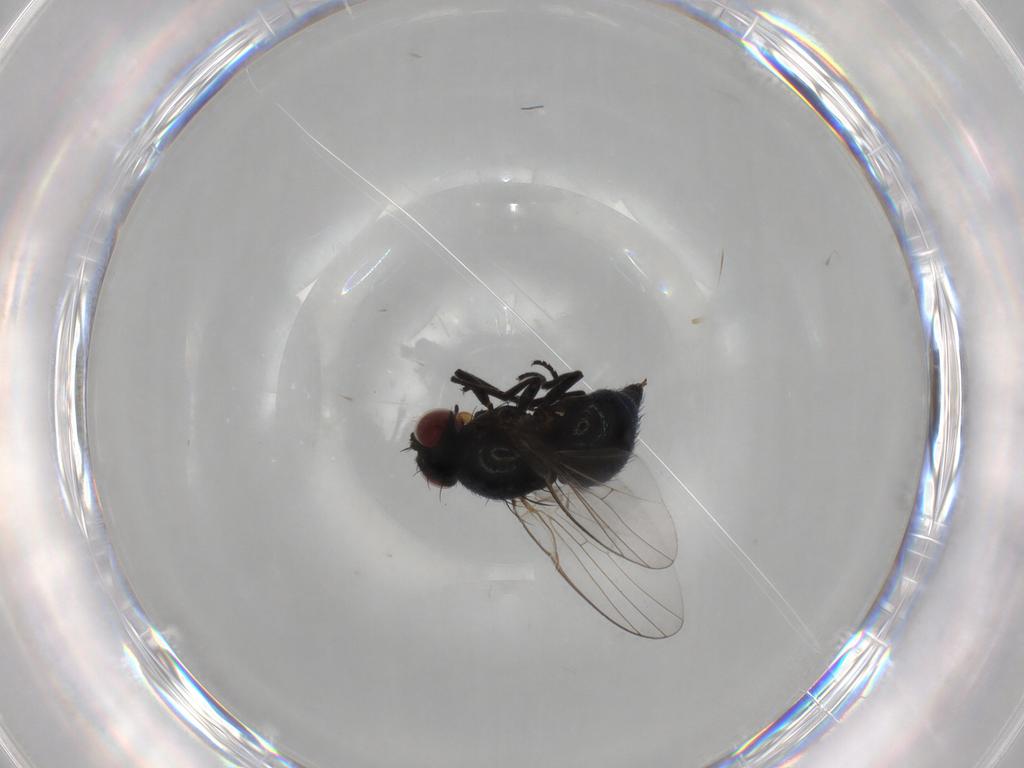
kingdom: Animalia
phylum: Arthropoda
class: Insecta
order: Diptera
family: Agromyzidae
